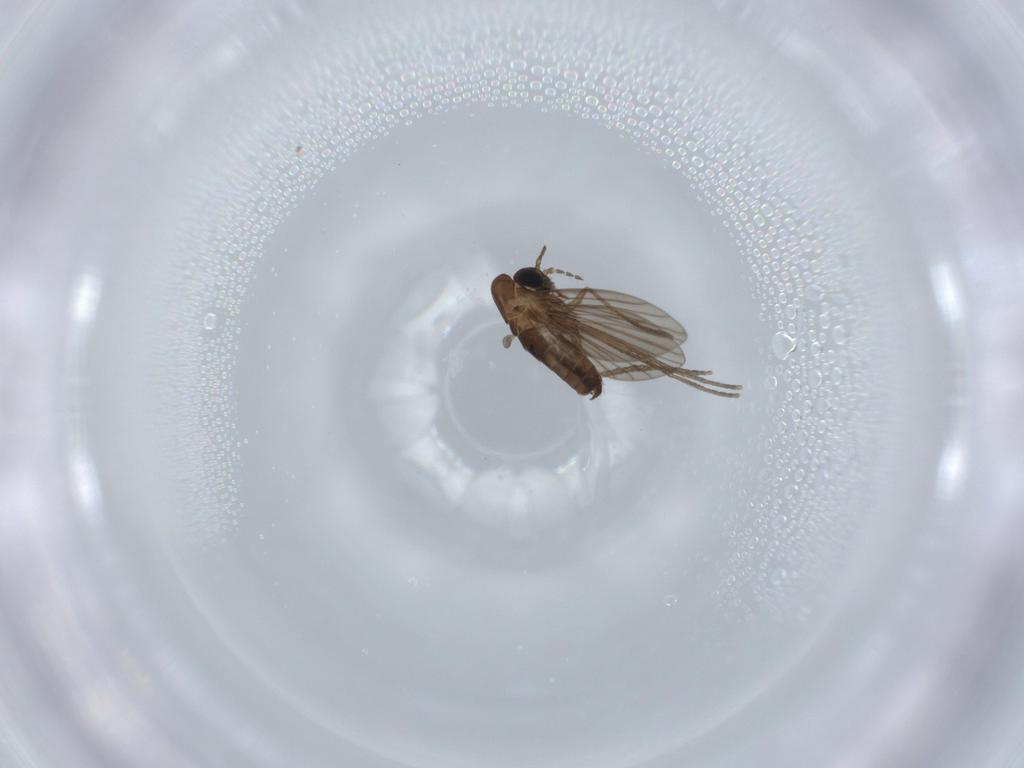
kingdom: Animalia
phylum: Arthropoda
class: Insecta
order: Diptera
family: Psychodidae
